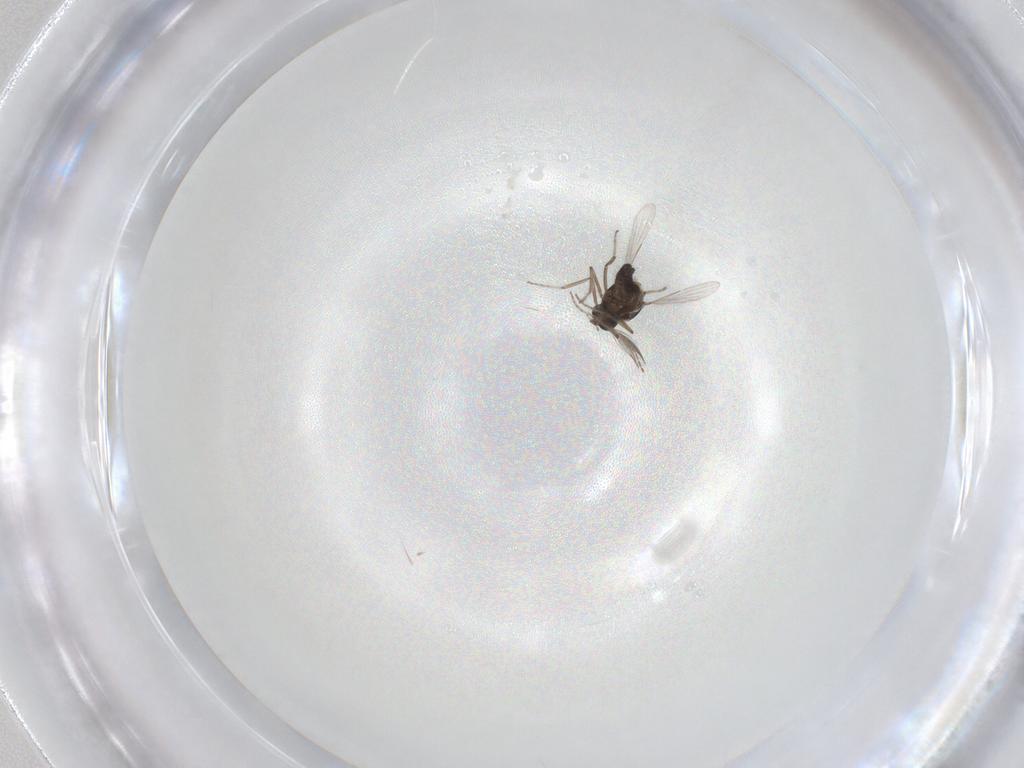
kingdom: Animalia
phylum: Arthropoda
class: Insecta
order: Diptera
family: Ceratopogonidae
